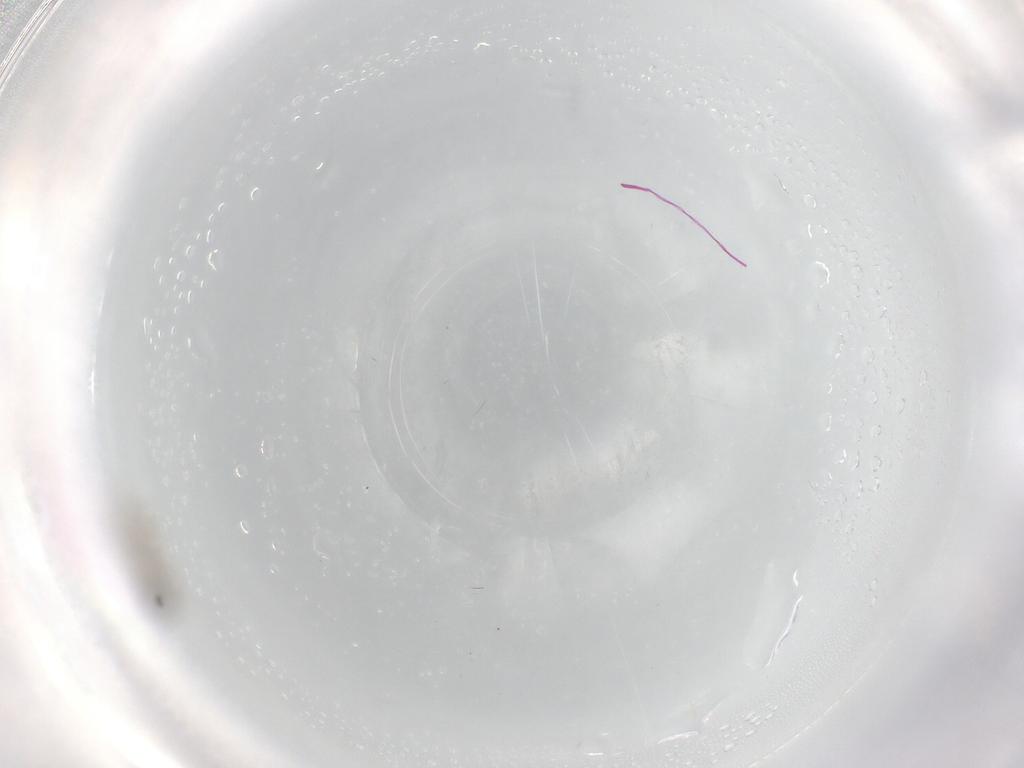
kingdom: Animalia
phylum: Arthropoda
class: Insecta
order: Diptera
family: Cecidomyiidae
